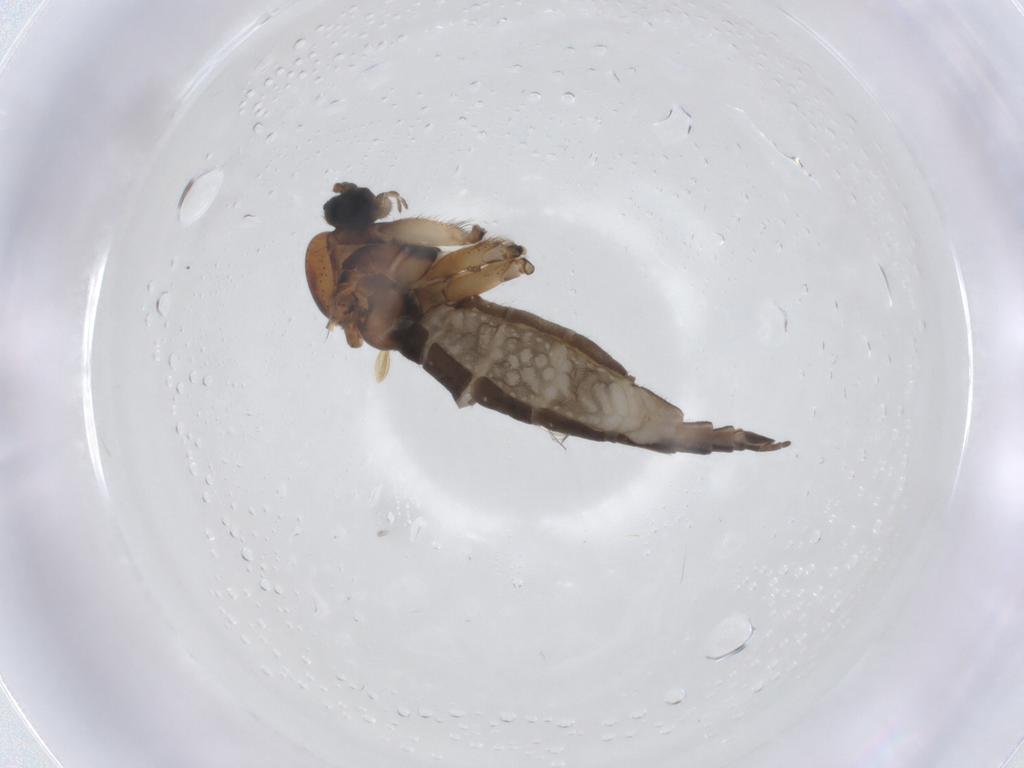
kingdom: Animalia
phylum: Arthropoda
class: Insecta
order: Diptera
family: Sciaridae
